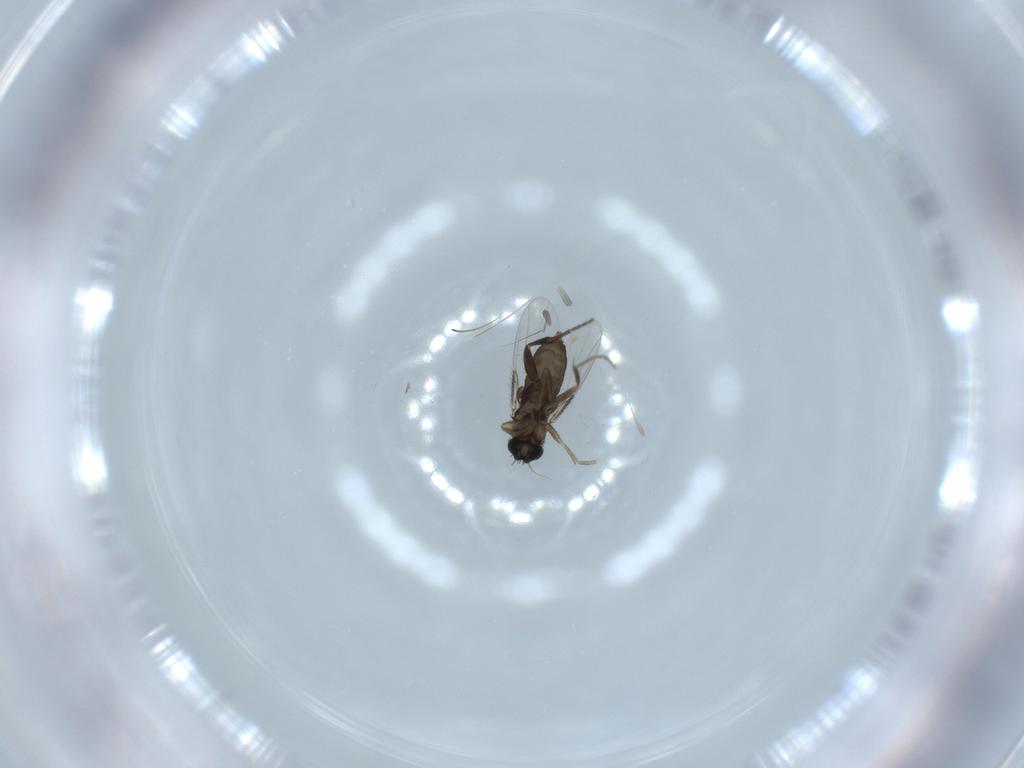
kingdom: Animalia
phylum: Arthropoda
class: Insecta
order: Diptera
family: Phoridae
